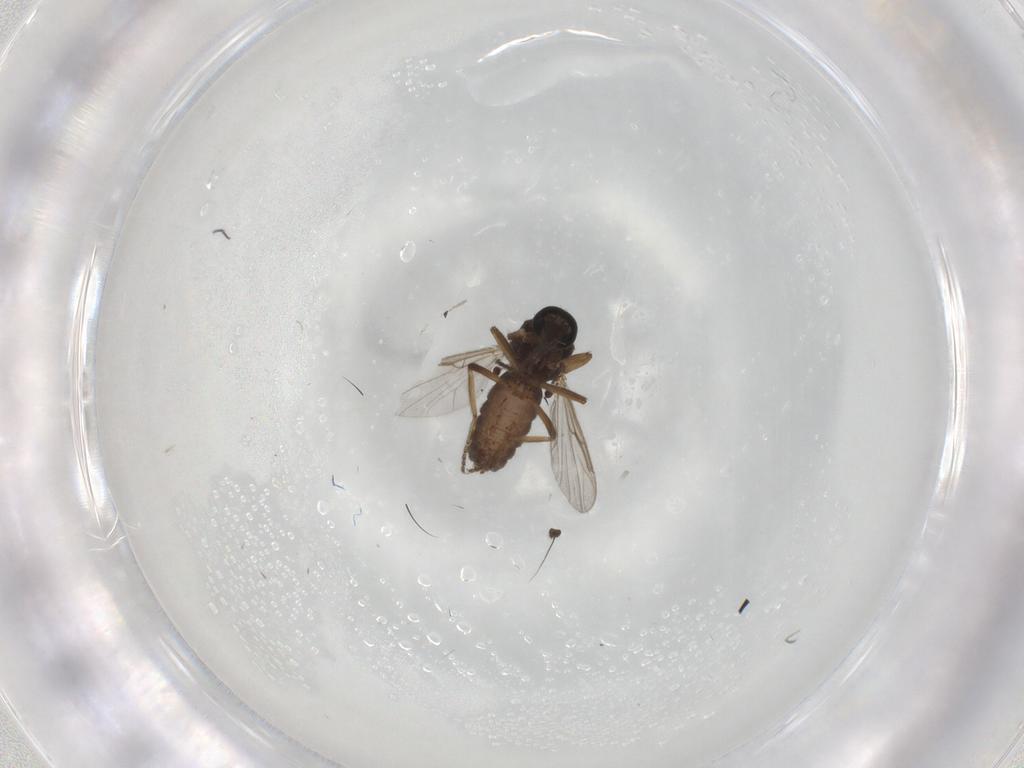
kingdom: Animalia
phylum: Arthropoda
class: Insecta
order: Diptera
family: Ceratopogonidae
